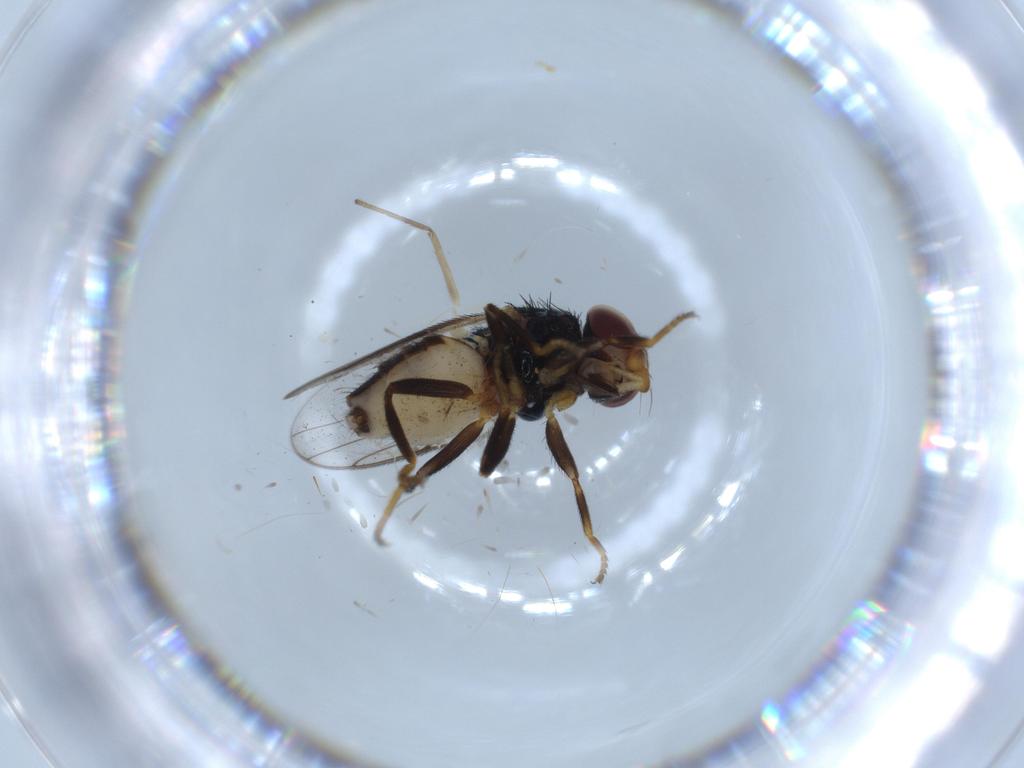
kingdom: Animalia
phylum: Arthropoda
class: Insecta
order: Diptera
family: Chloropidae
